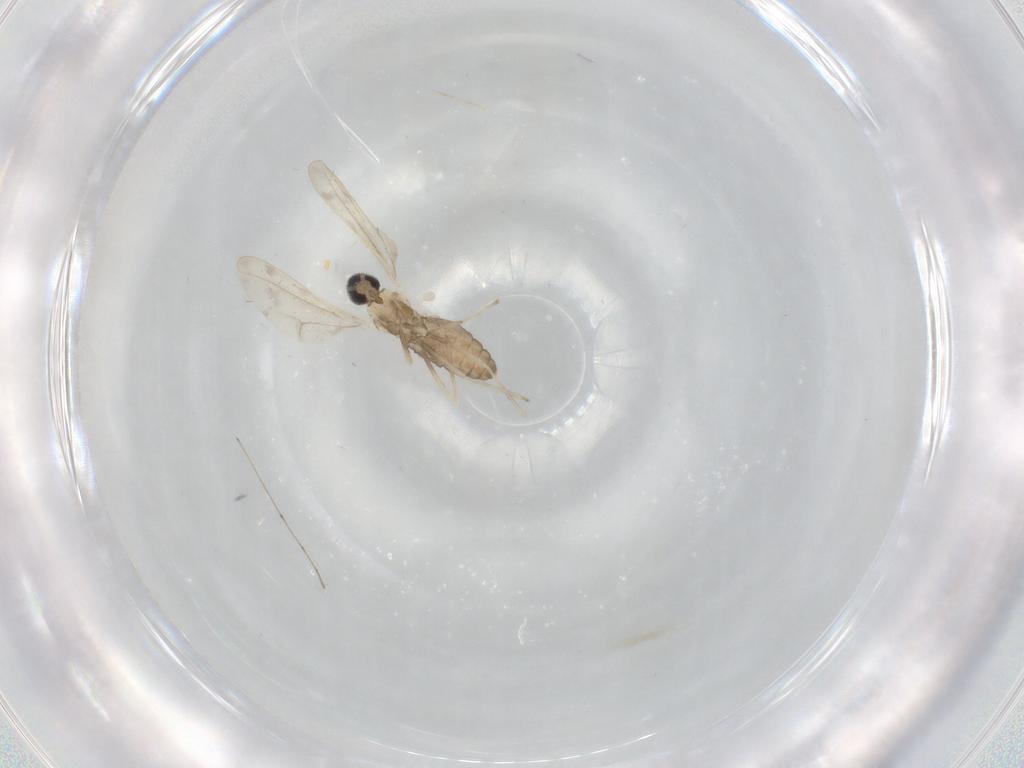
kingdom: Animalia
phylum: Arthropoda
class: Insecta
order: Diptera
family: Cecidomyiidae
